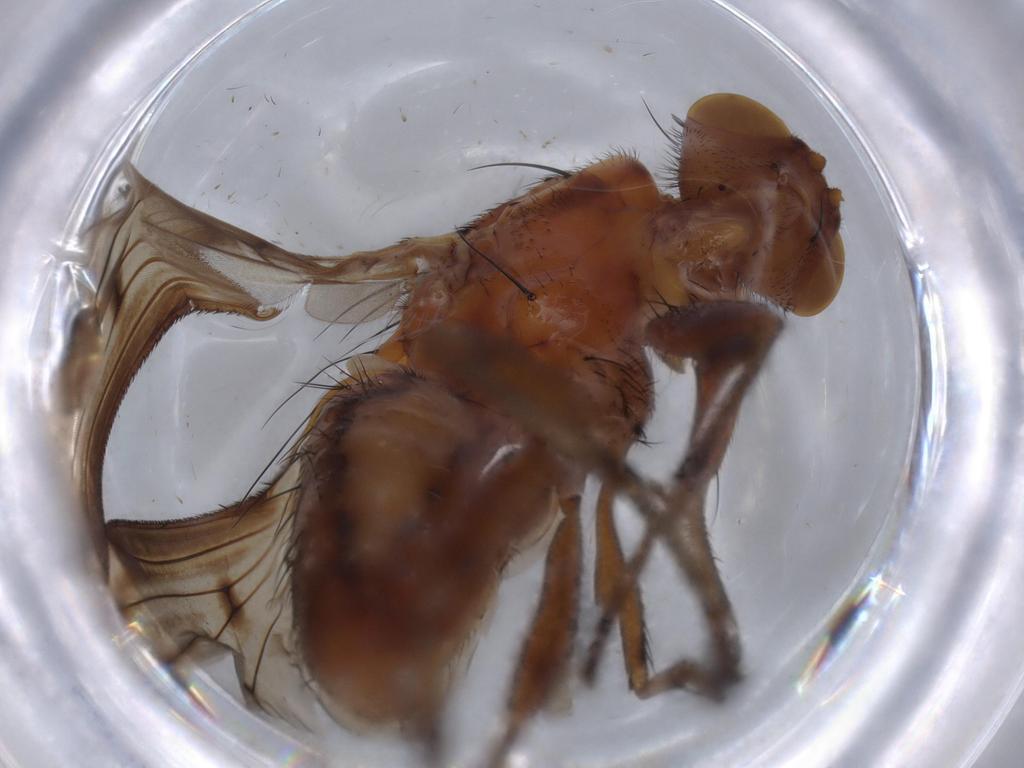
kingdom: Animalia
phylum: Arthropoda
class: Insecta
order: Diptera
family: Heleomyzidae
